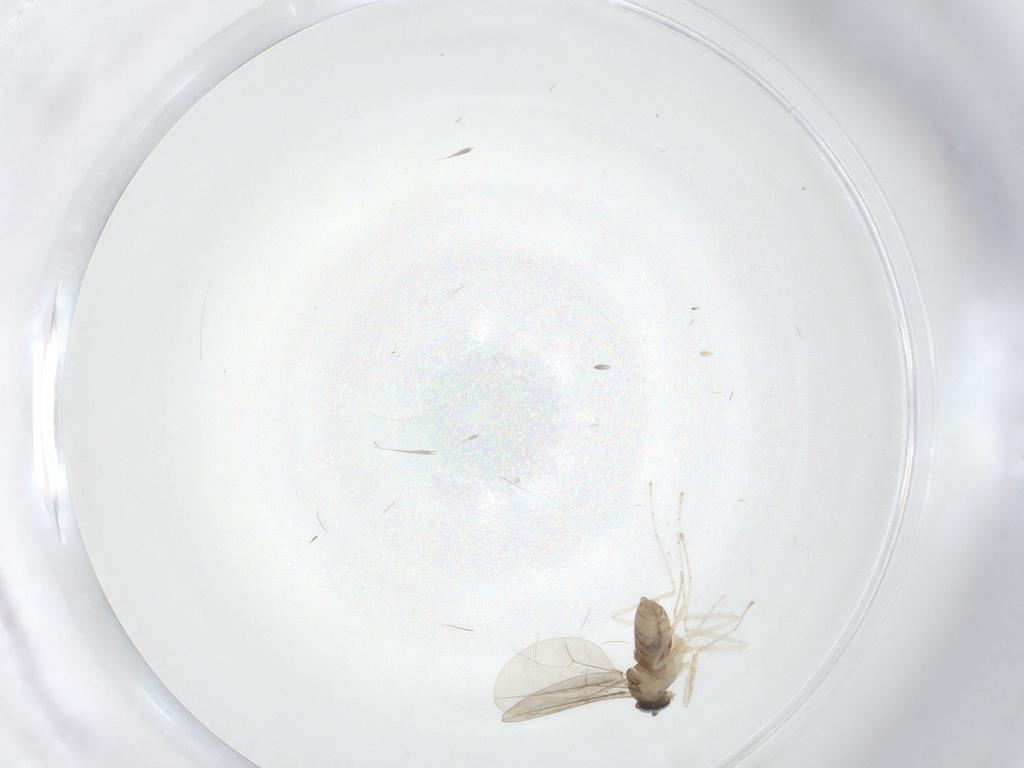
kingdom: Animalia
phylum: Arthropoda
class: Insecta
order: Diptera
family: Cecidomyiidae
